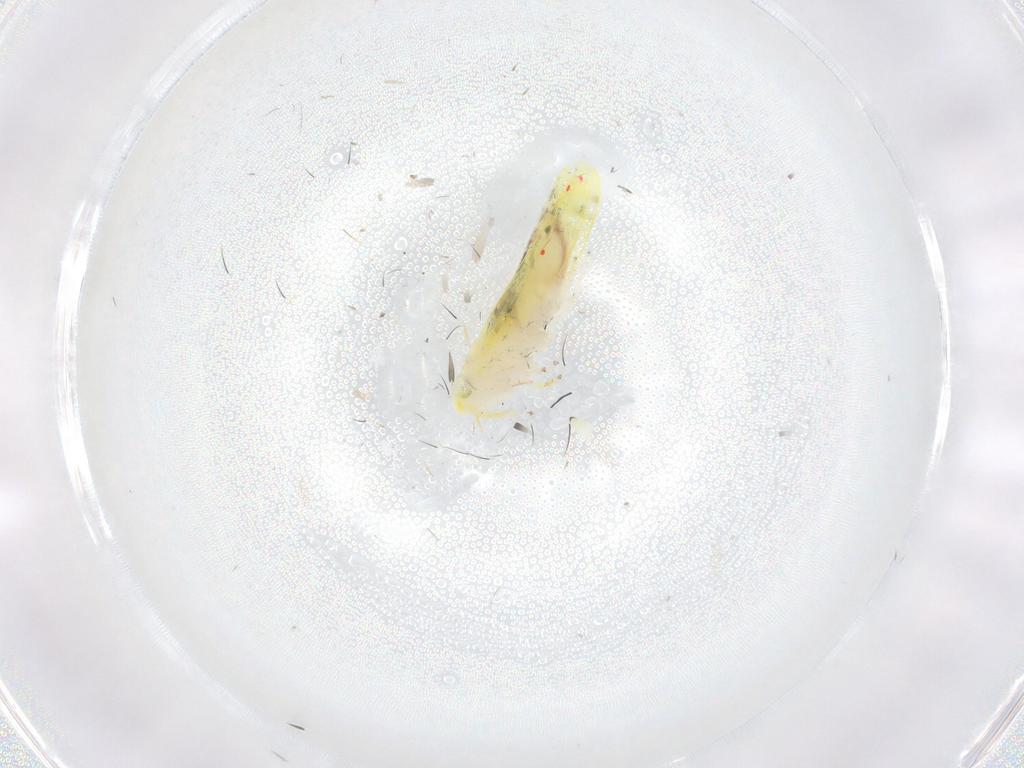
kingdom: Animalia
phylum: Arthropoda
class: Insecta
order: Hemiptera
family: Cicadellidae
